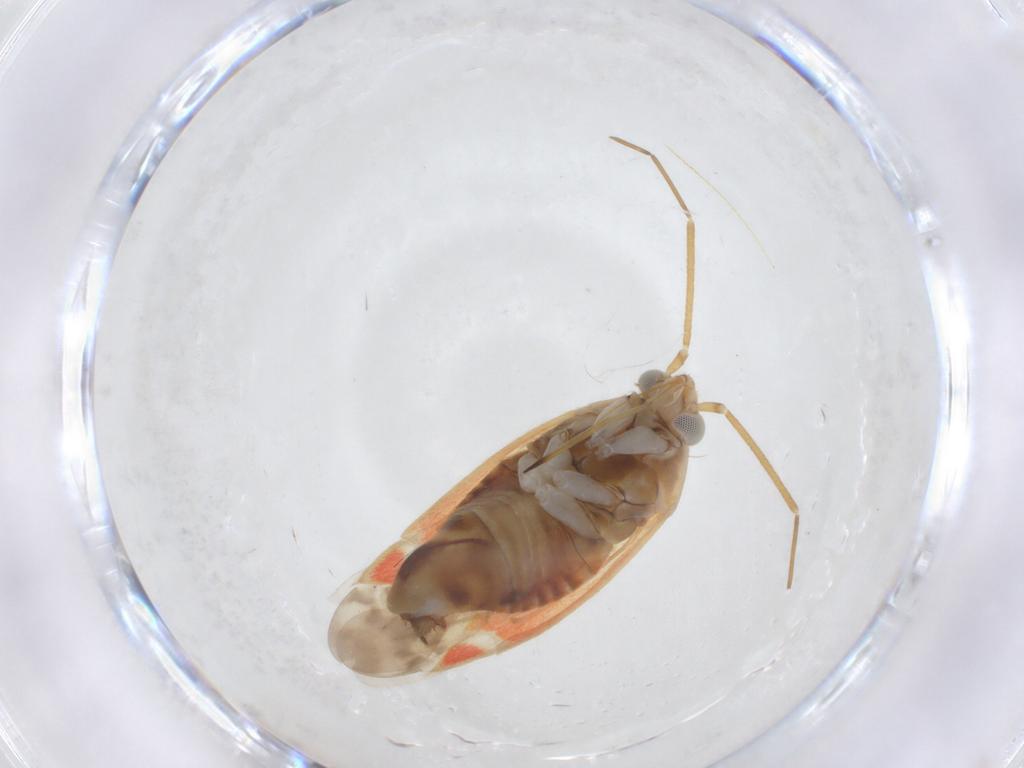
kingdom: Animalia
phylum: Arthropoda
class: Insecta
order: Hemiptera
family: Miridae
